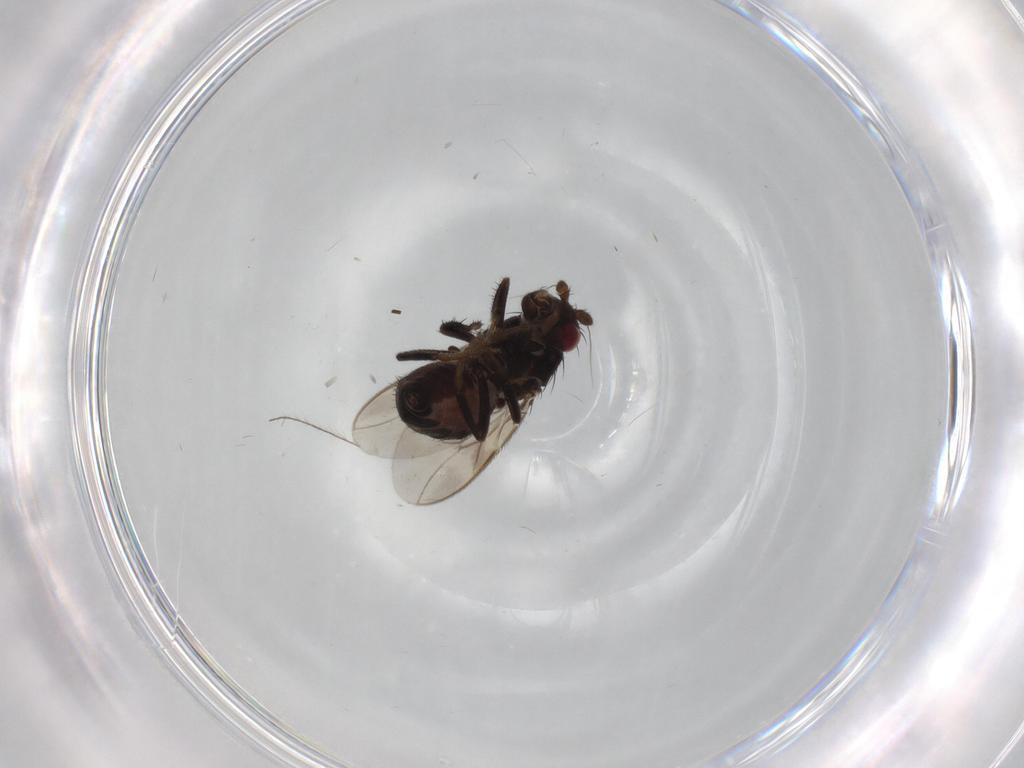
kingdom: Animalia
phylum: Arthropoda
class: Insecta
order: Diptera
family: Sphaeroceridae
